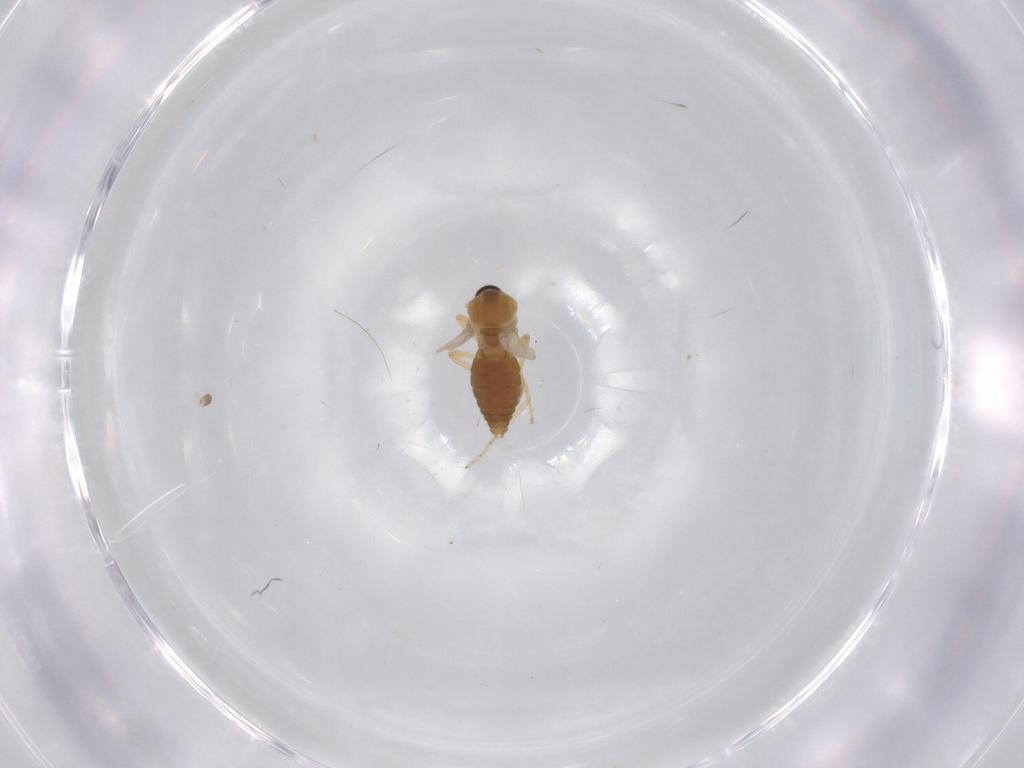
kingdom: Animalia
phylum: Arthropoda
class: Insecta
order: Diptera
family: Ceratopogonidae
